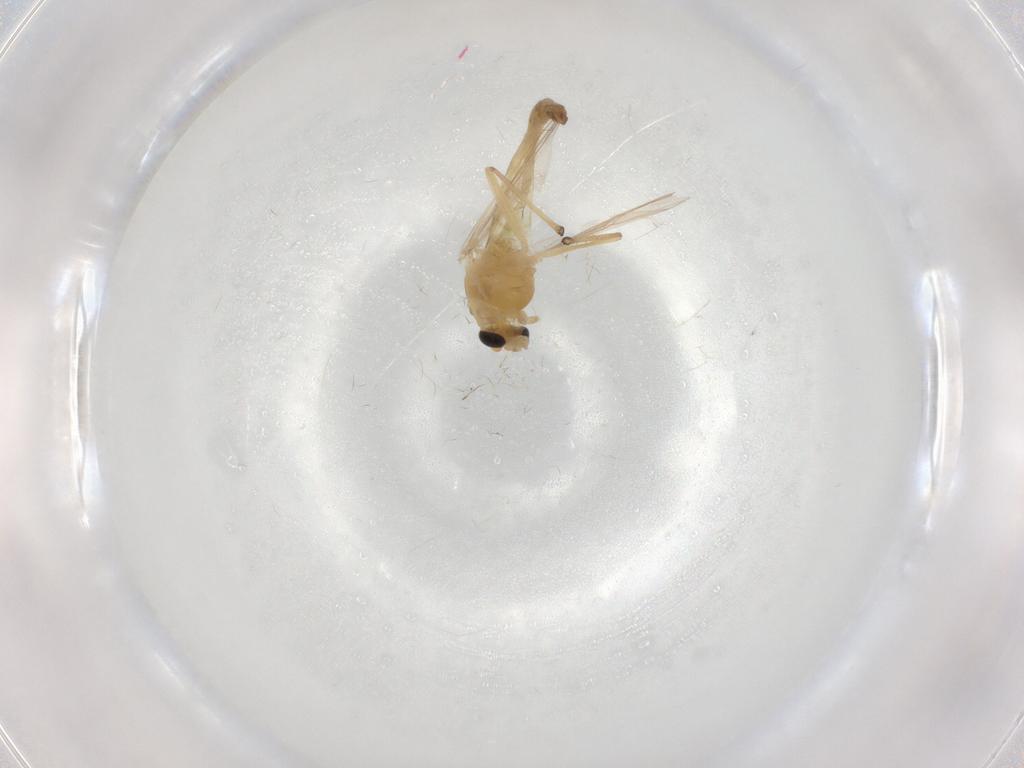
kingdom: Animalia
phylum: Arthropoda
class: Insecta
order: Diptera
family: Chironomidae
